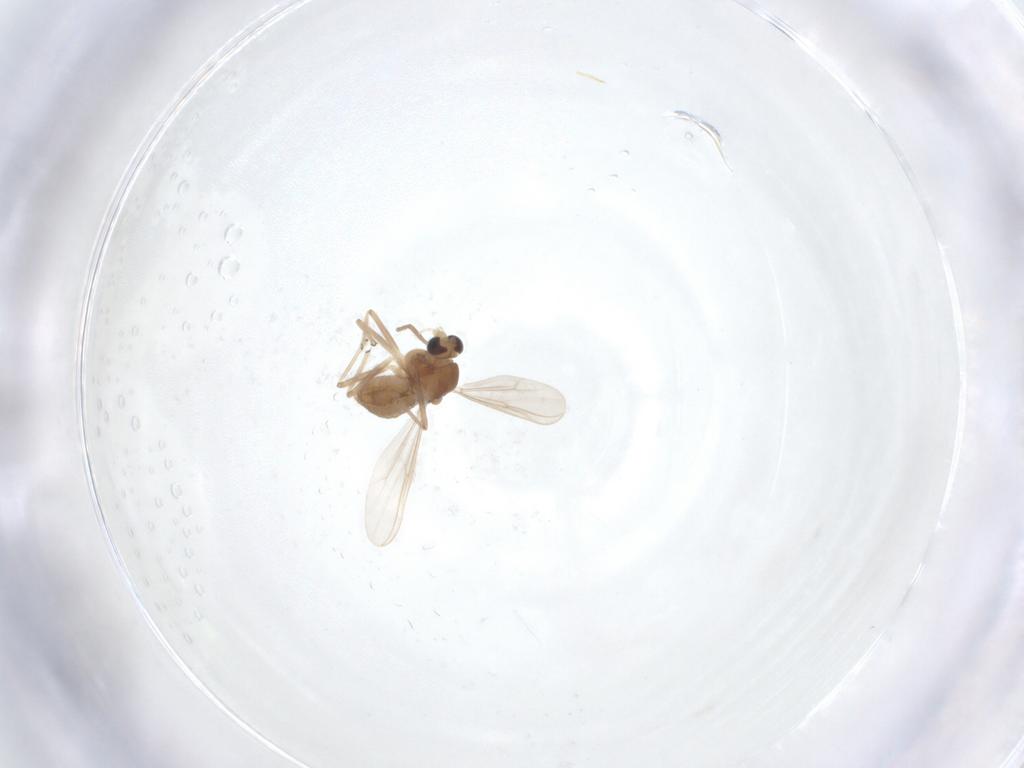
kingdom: Animalia
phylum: Arthropoda
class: Insecta
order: Diptera
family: Chironomidae
